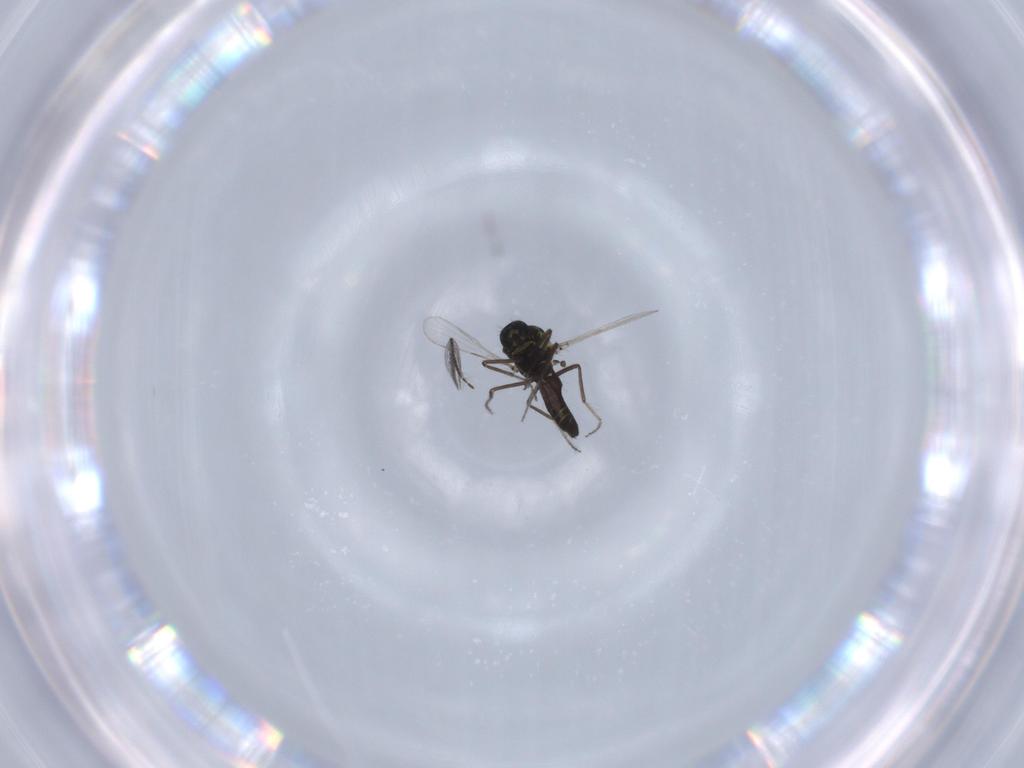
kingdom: Animalia
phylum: Arthropoda
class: Insecta
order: Diptera
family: Ceratopogonidae
